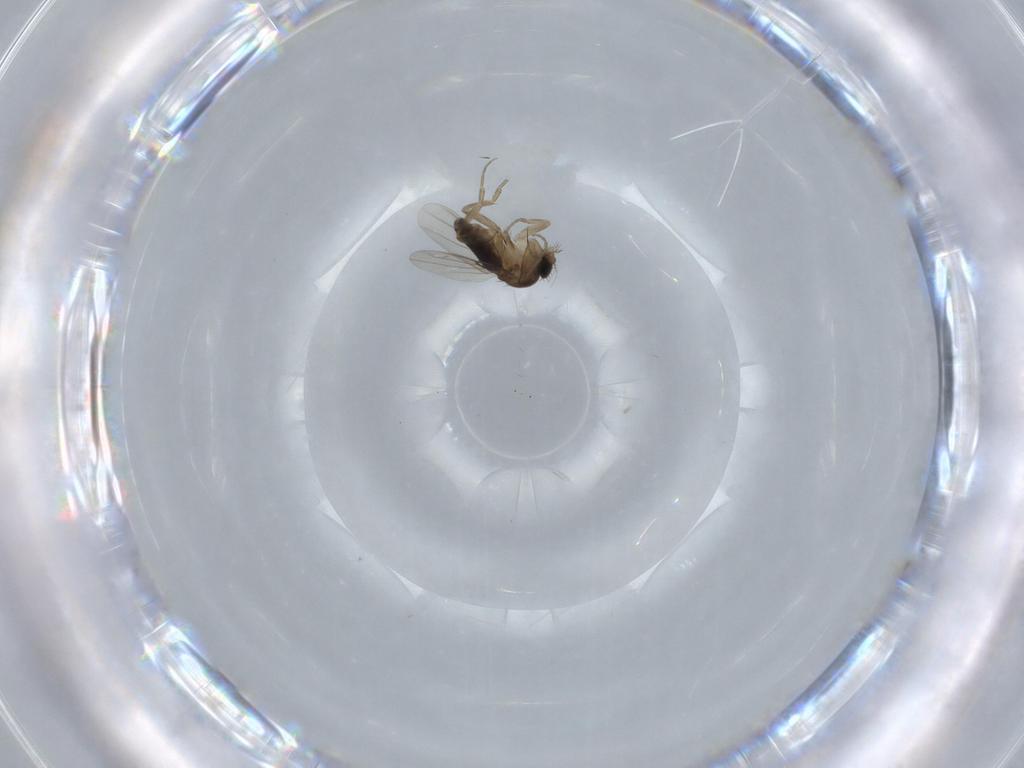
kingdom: Animalia
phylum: Arthropoda
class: Insecta
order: Diptera
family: Phoridae
